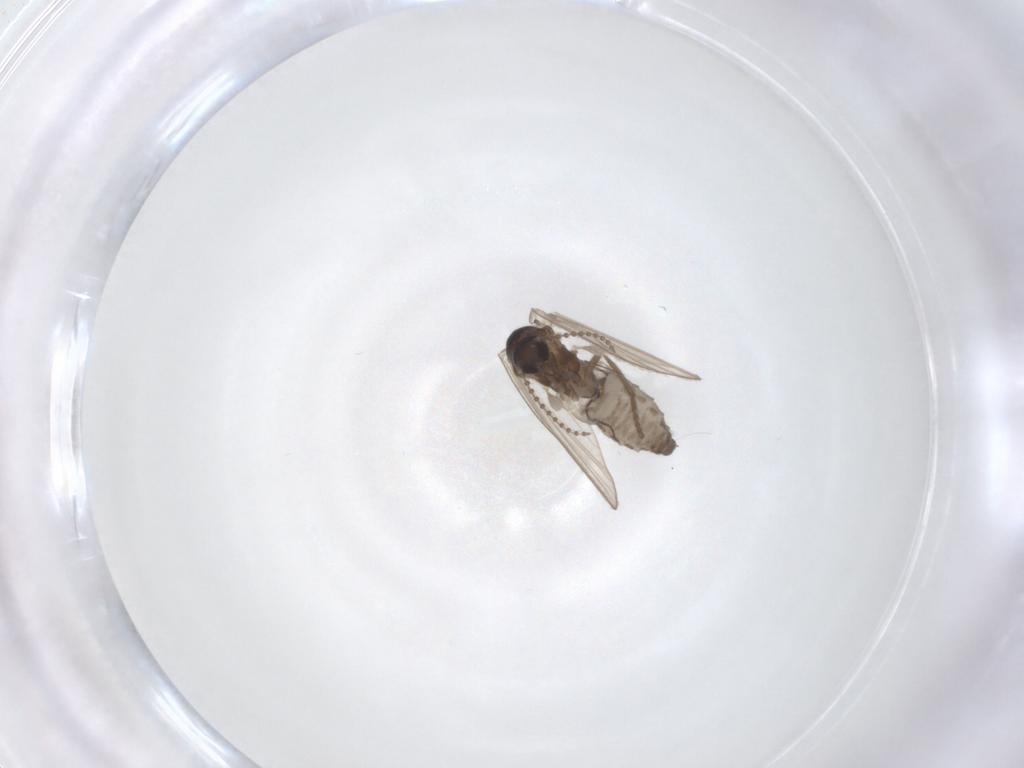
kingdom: Animalia
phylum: Arthropoda
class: Insecta
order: Diptera
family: Limoniidae
